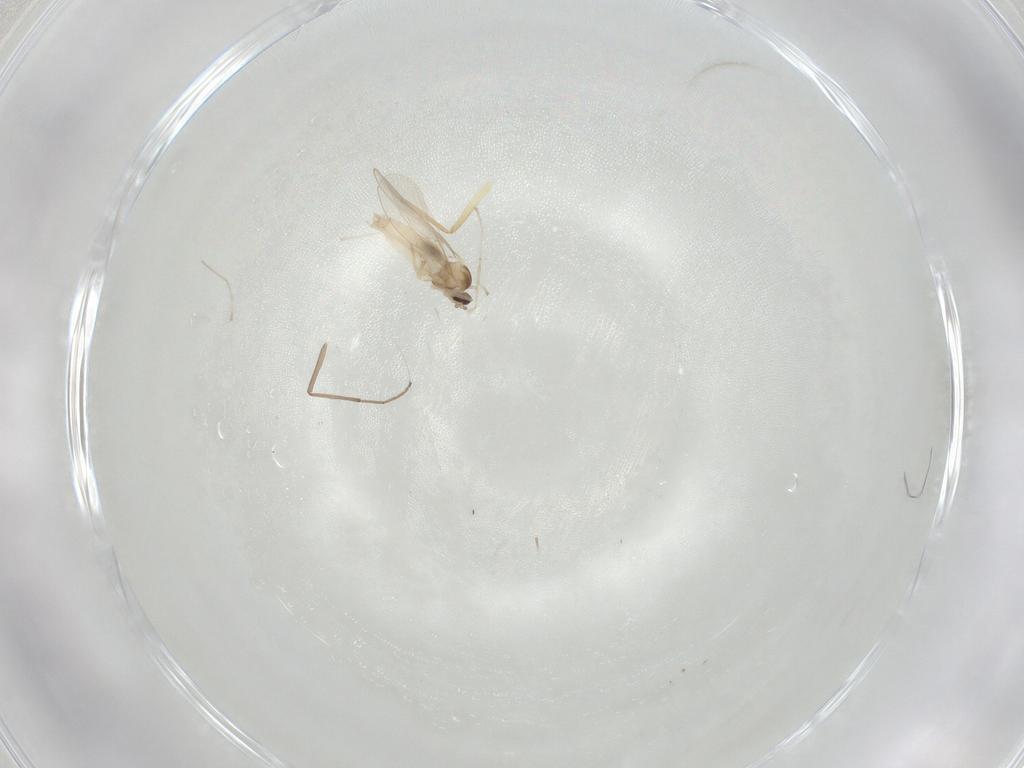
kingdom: Animalia
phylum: Arthropoda
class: Insecta
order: Diptera
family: Chironomidae
